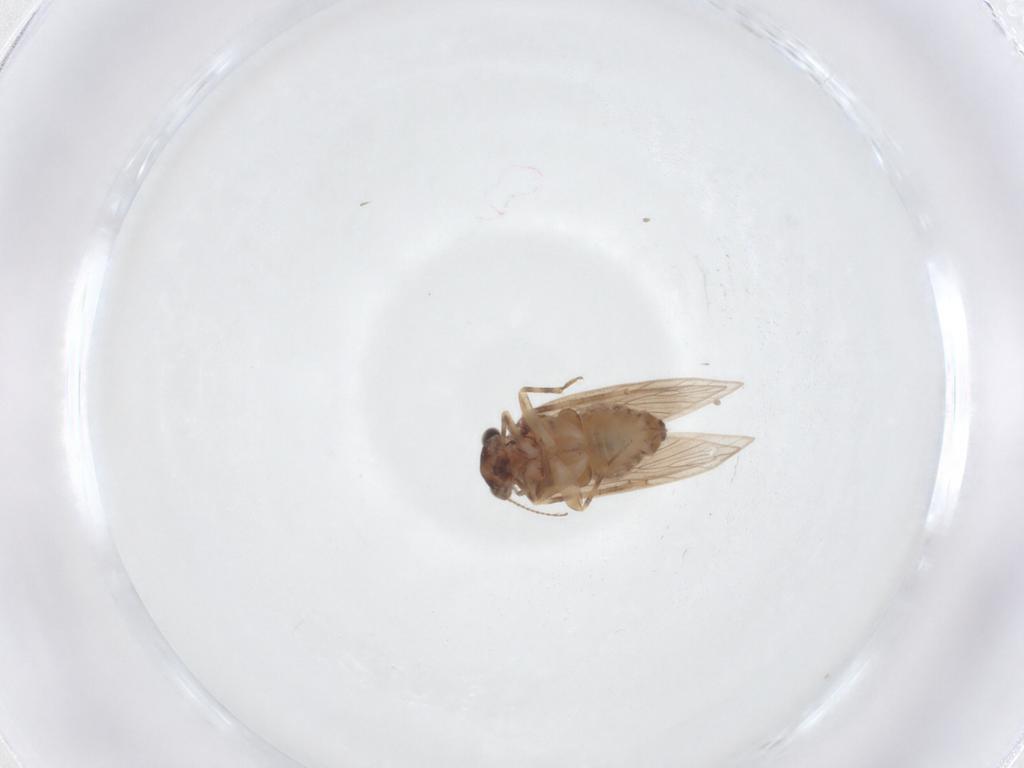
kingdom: Animalia
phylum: Arthropoda
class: Insecta
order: Psocodea
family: Lepidopsocidae
